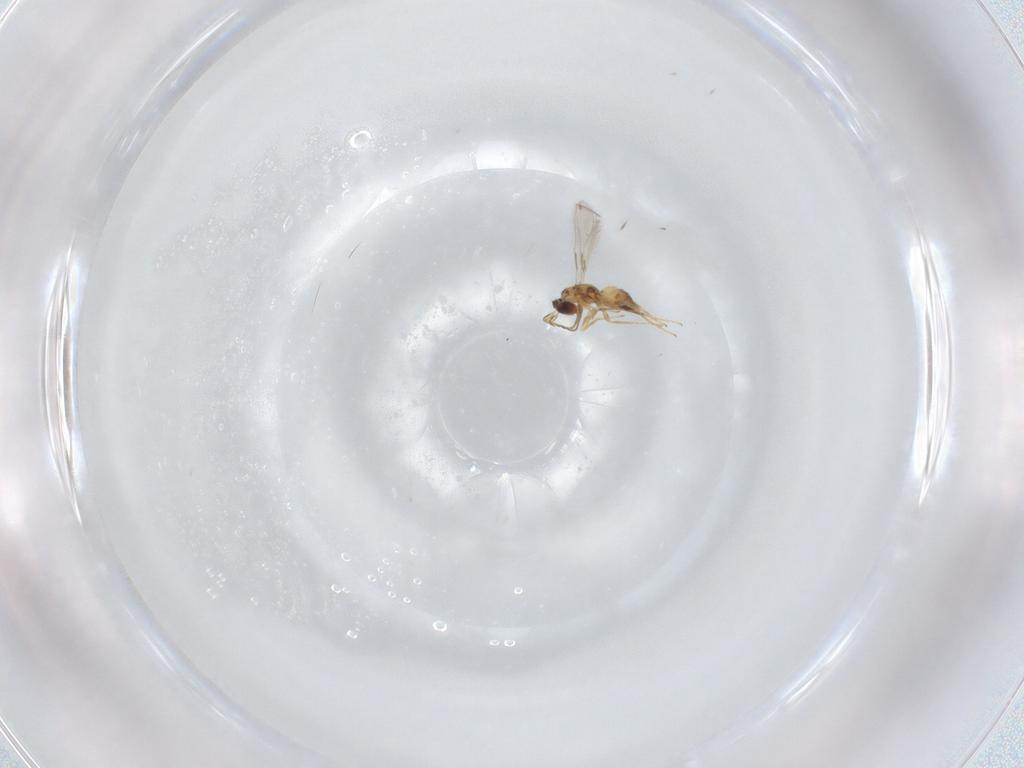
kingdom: Animalia
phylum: Arthropoda
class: Insecta
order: Hymenoptera
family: Mymaridae
